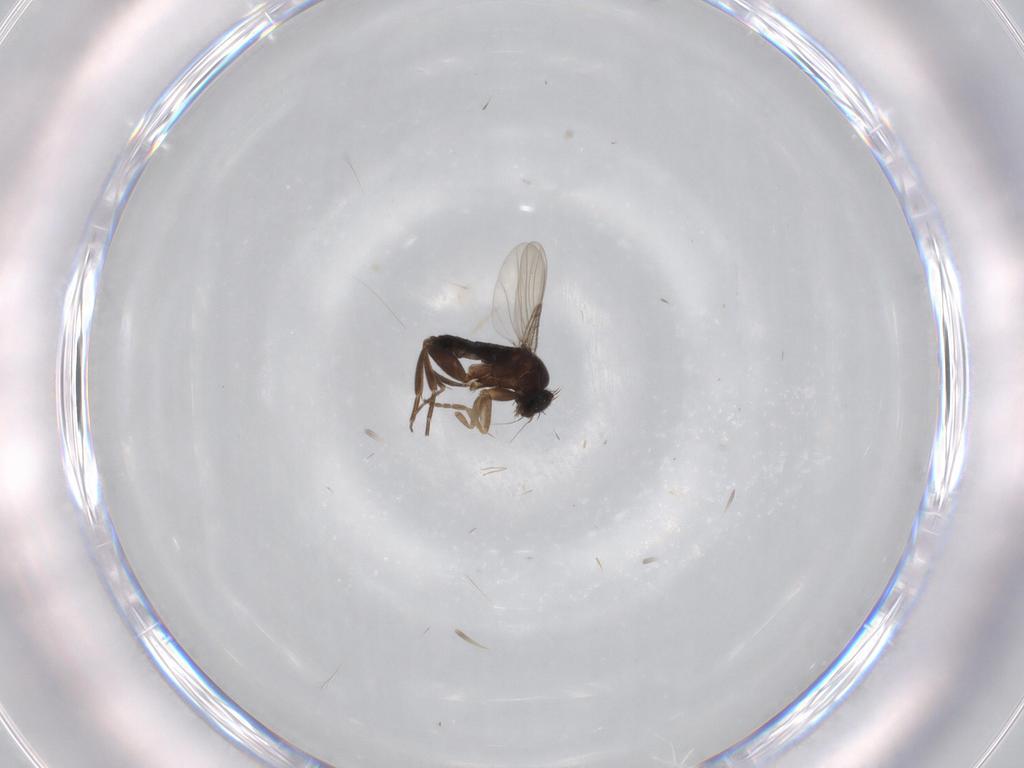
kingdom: Animalia
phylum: Arthropoda
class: Insecta
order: Diptera
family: Phoridae
